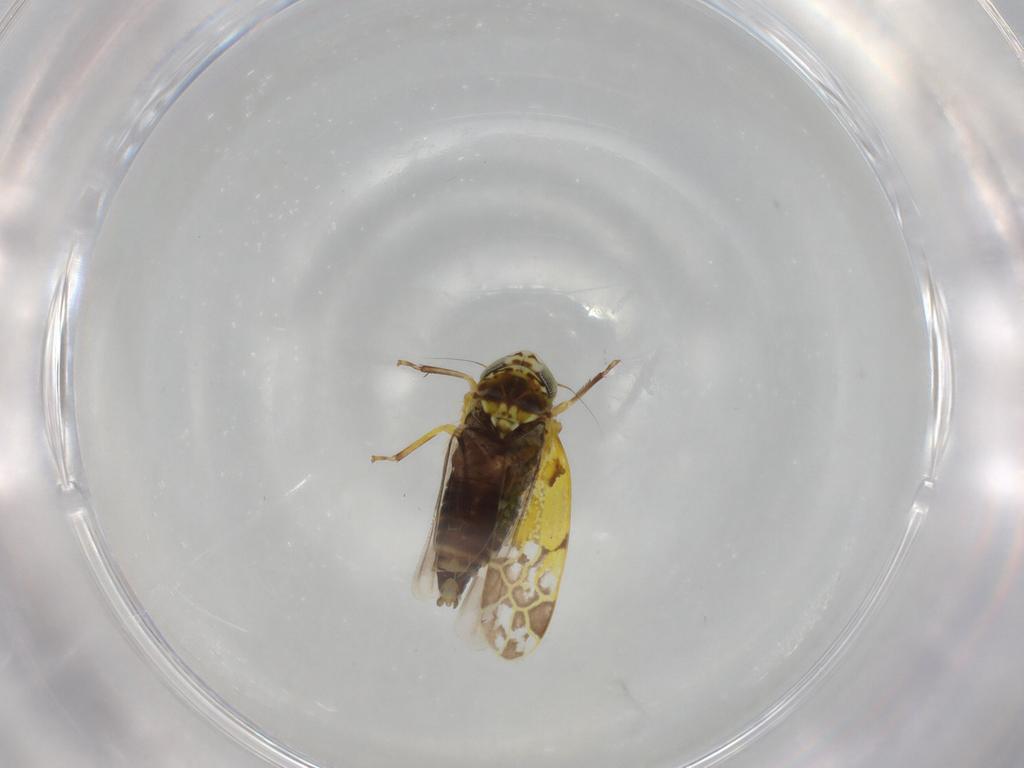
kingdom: Animalia
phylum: Arthropoda
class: Insecta
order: Hemiptera
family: Cicadellidae
